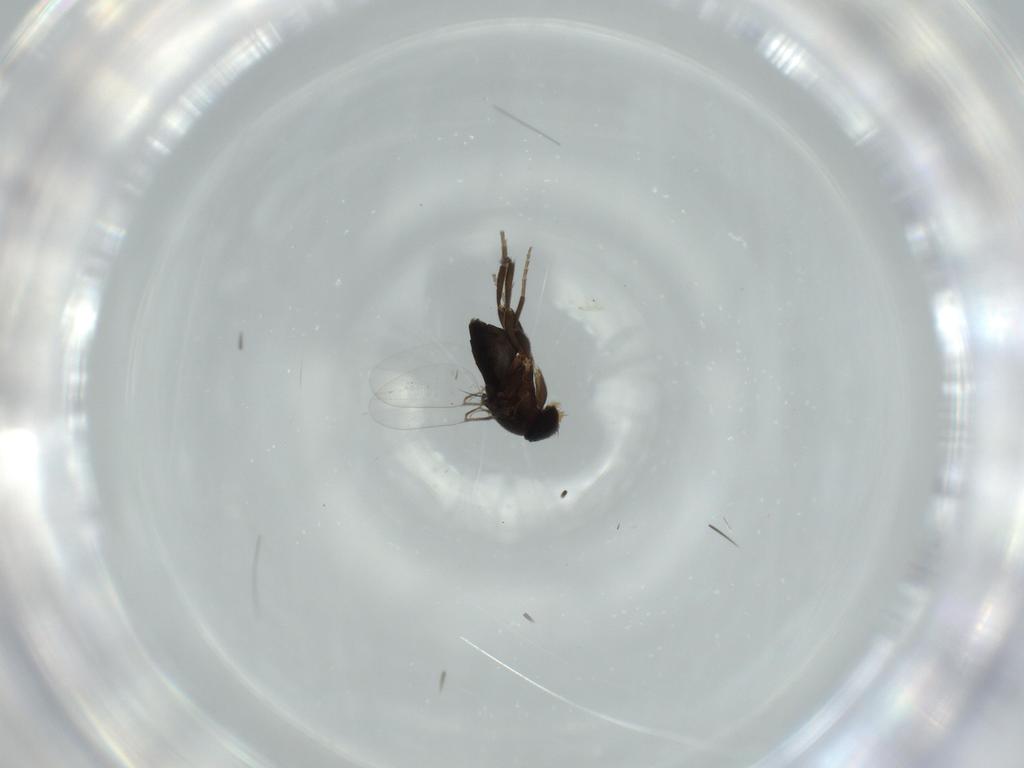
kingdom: Animalia
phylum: Arthropoda
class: Insecta
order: Diptera
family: Phoridae
